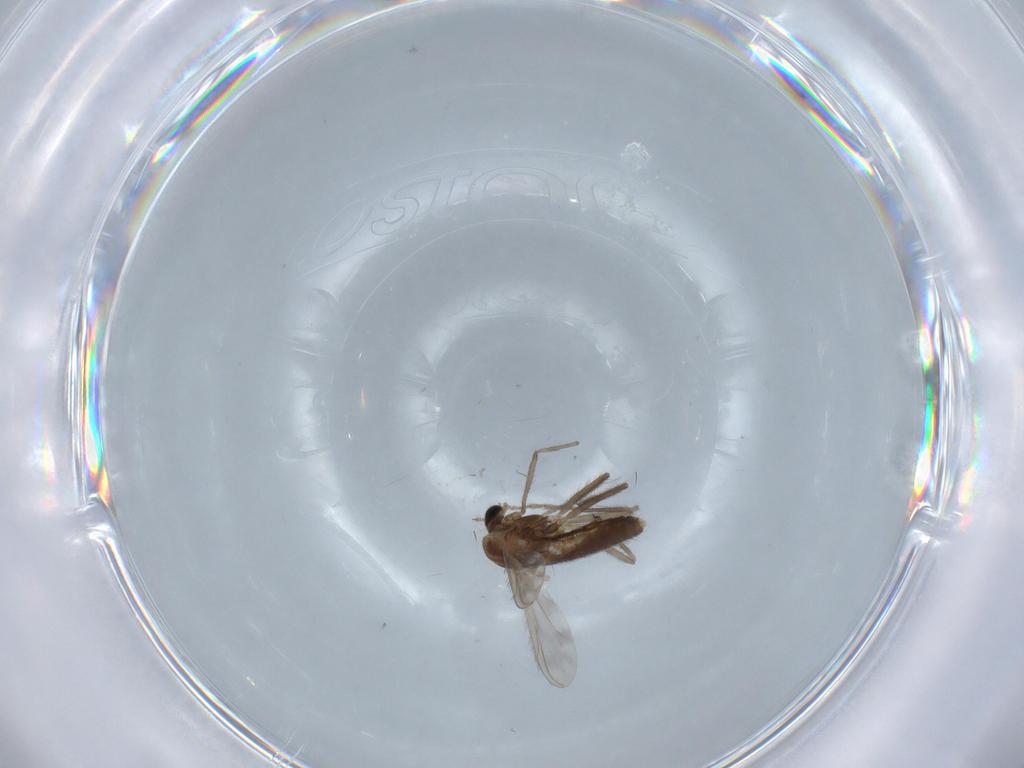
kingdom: Animalia
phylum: Arthropoda
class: Insecta
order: Diptera
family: Chironomidae
